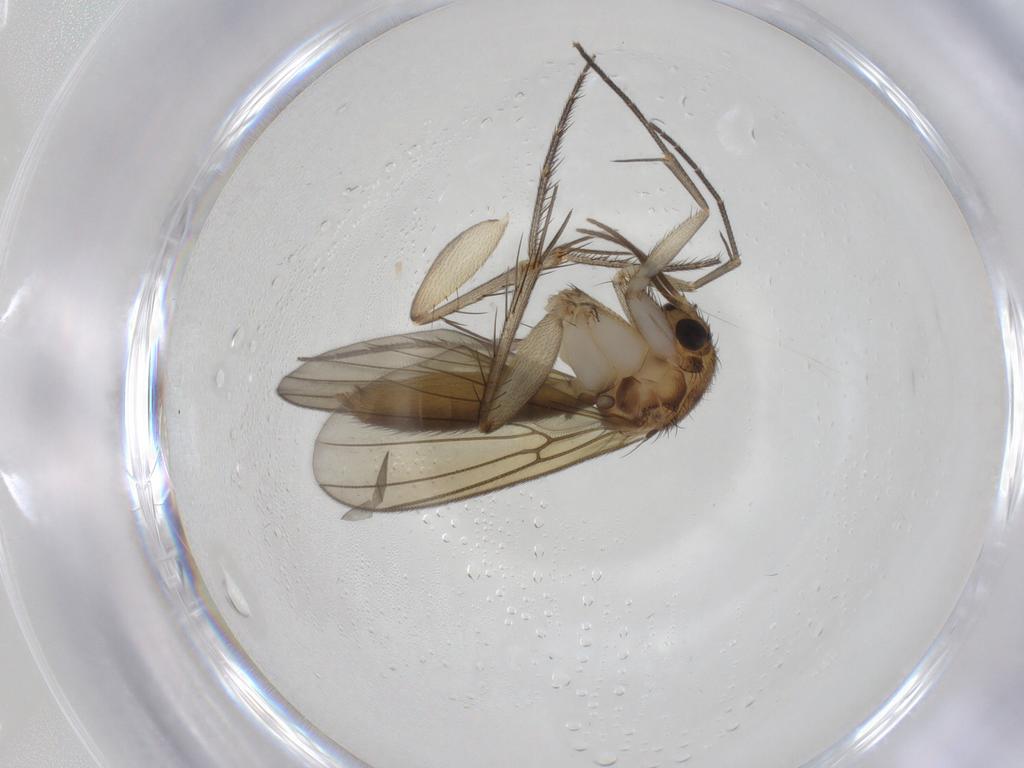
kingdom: Animalia
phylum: Arthropoda
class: Insecta
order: Diptera
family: Mycetophilidae
